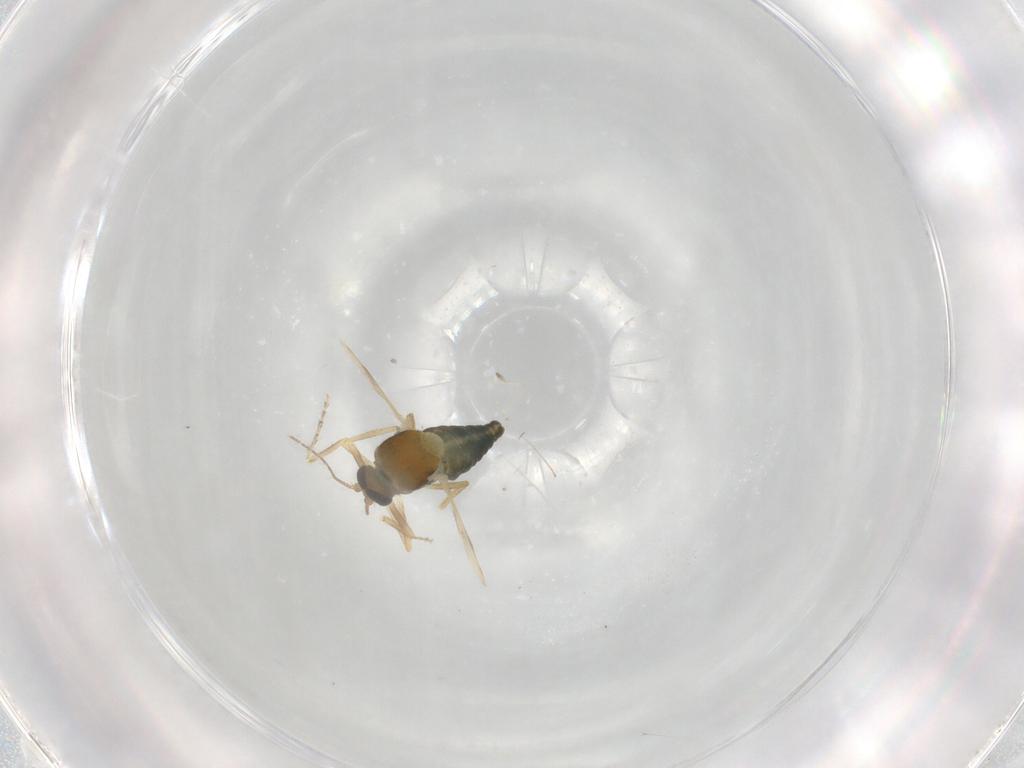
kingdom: Animalia
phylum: Arthropoda
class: Insecta
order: Diptera
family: Ceratopogonidae
